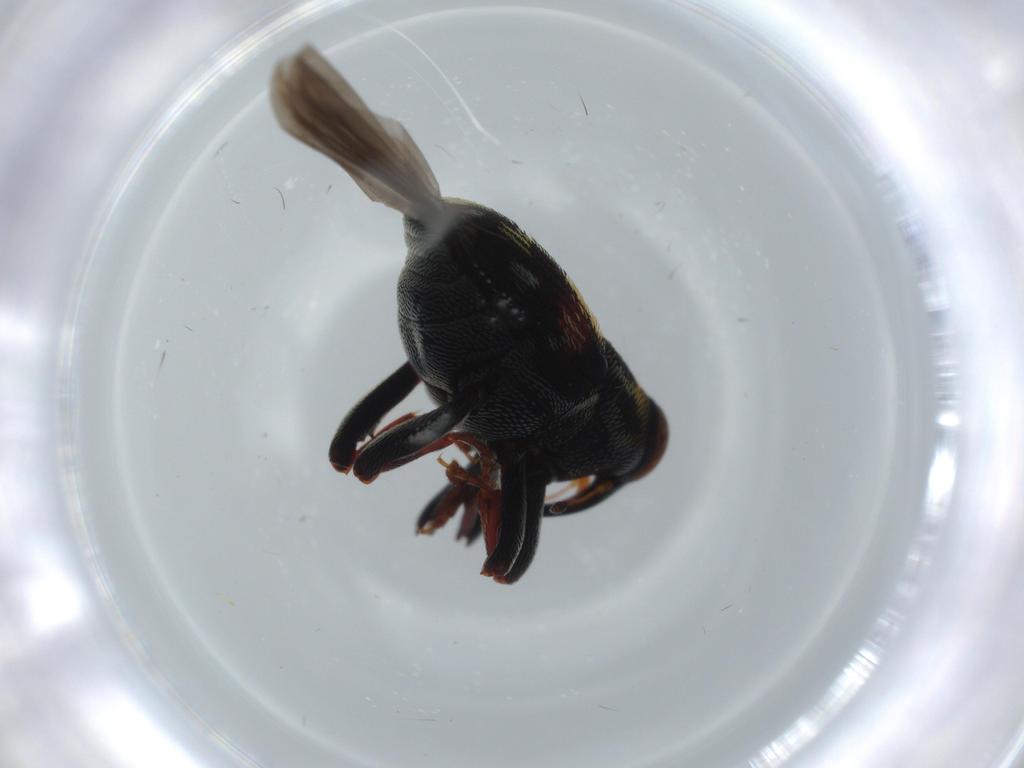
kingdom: Animalia
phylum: Arthropoda
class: Insecta
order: Coleoptera
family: Curculionidae
